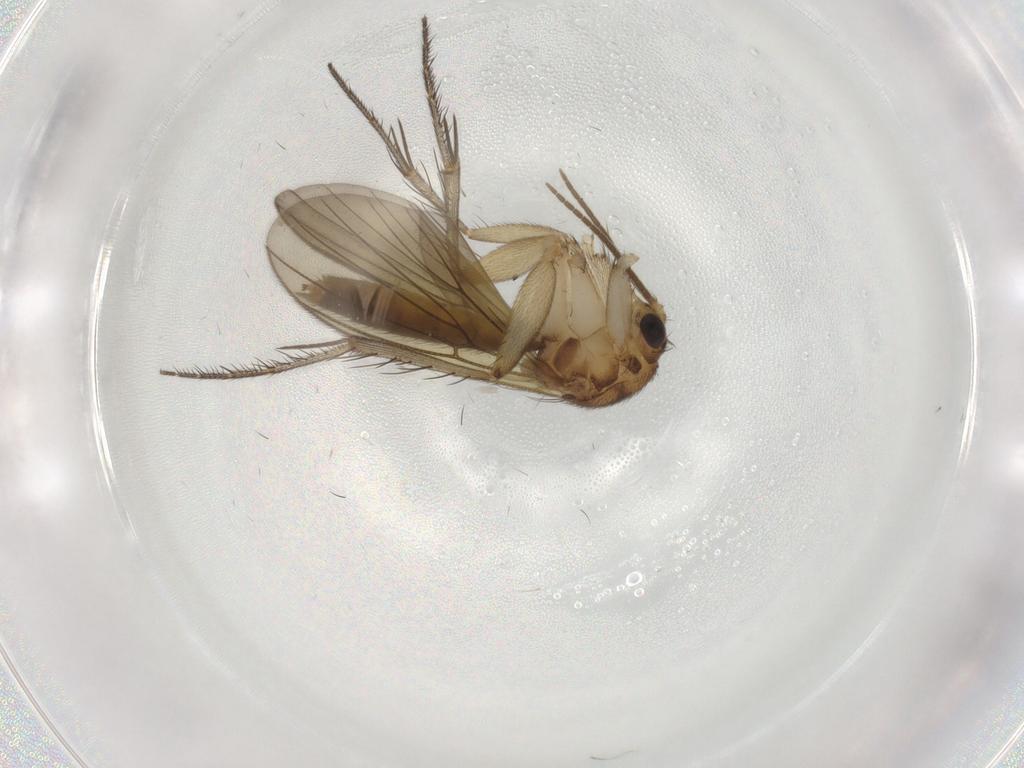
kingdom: Animalia
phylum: Arthropoda
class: Insecta
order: Diptera
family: Mycetophilidae
